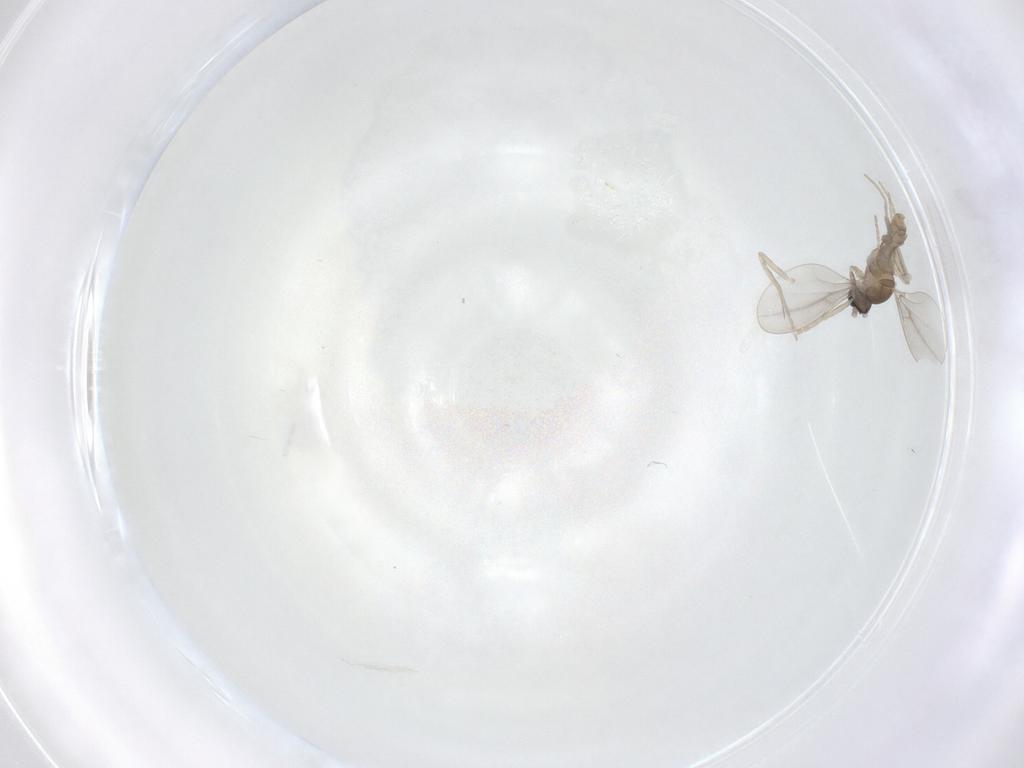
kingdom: Animalia
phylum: Arthropoda
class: Insecta
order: Diptera
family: Cecidomyiidae
